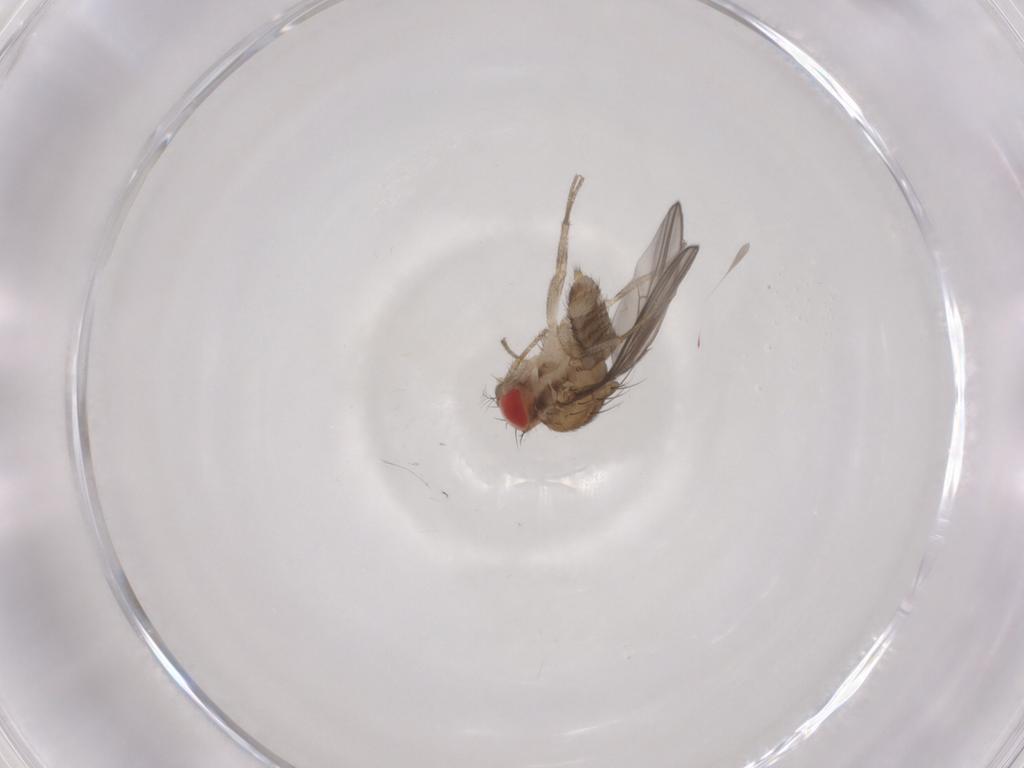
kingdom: Animalia
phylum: Arthropoda
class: Insecta
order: Diptera
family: Drosophilidae
